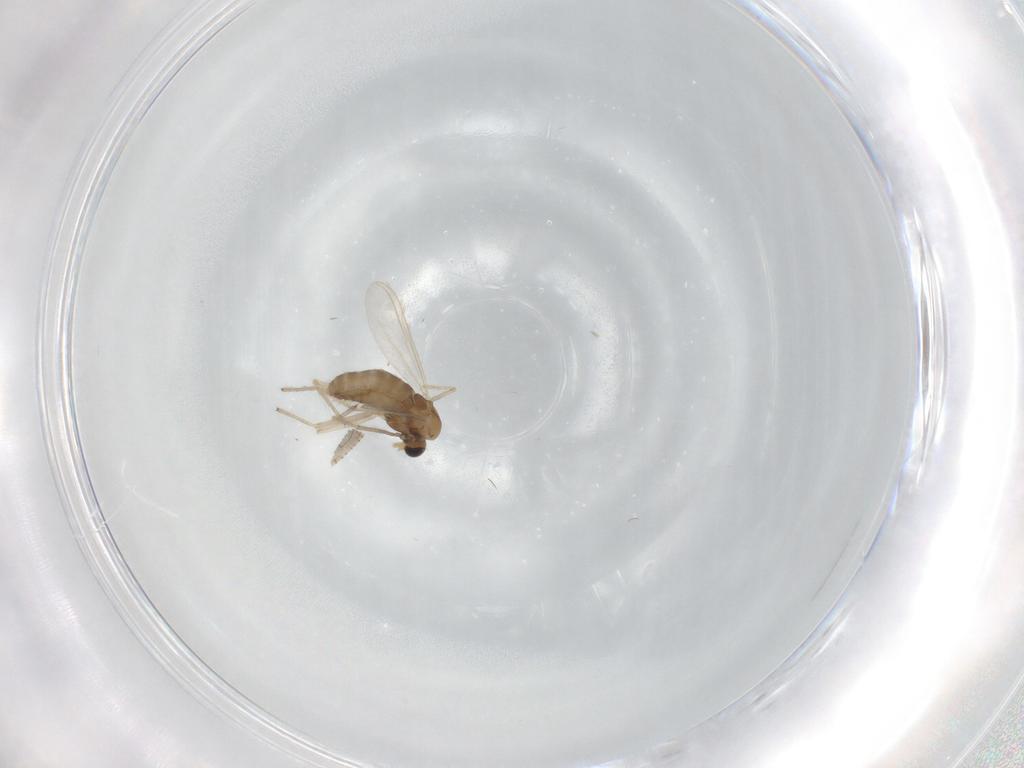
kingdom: Animalia
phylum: Arthropoda
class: Insecta
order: Diptera
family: Chironomidae
